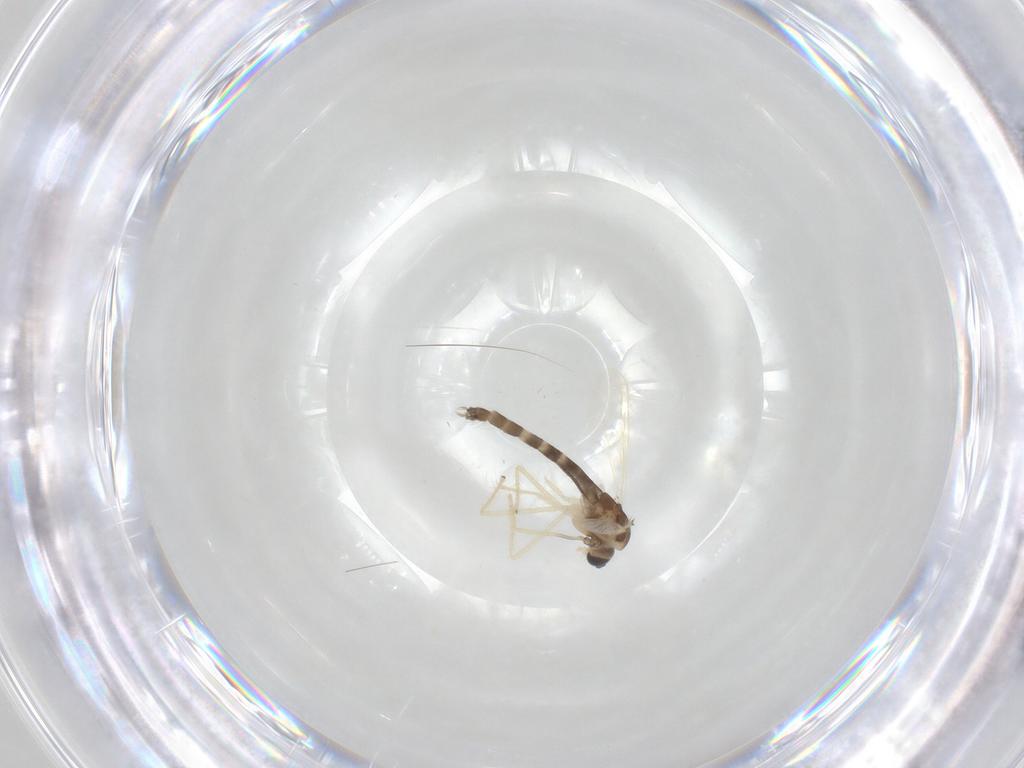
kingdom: Animalia
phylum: Arthropoda
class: Insecta
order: Diptera
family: Chironomidae
